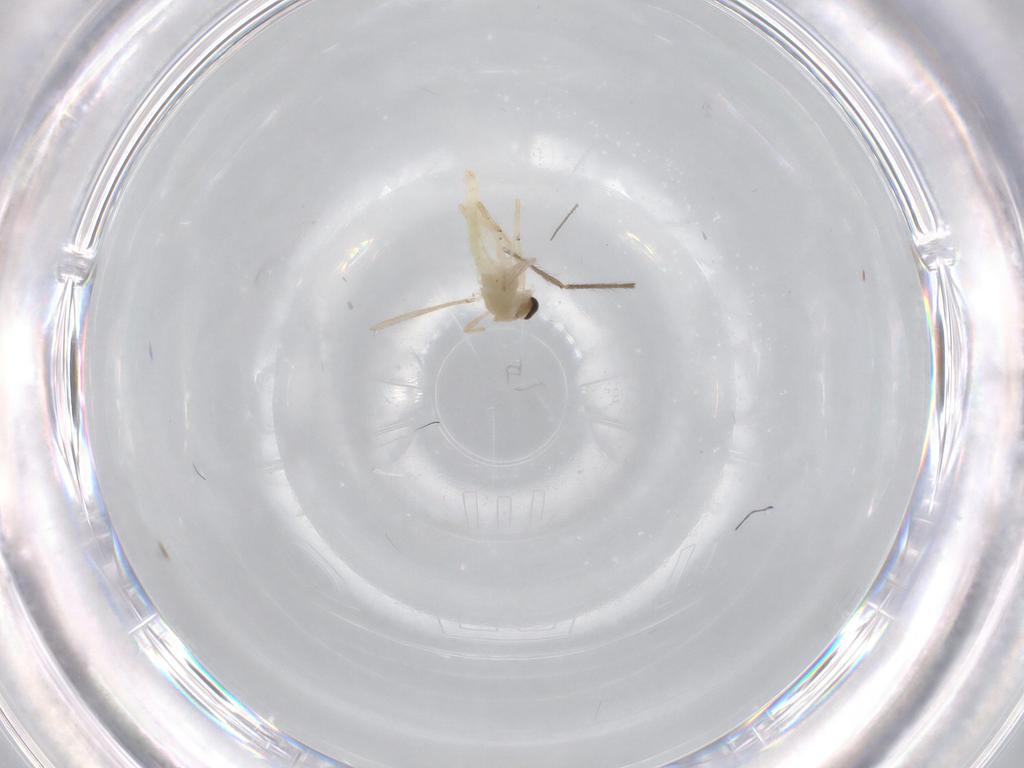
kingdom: Animalia
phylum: Arthropoda
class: Insecta
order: Diptera
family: Chironomidae
